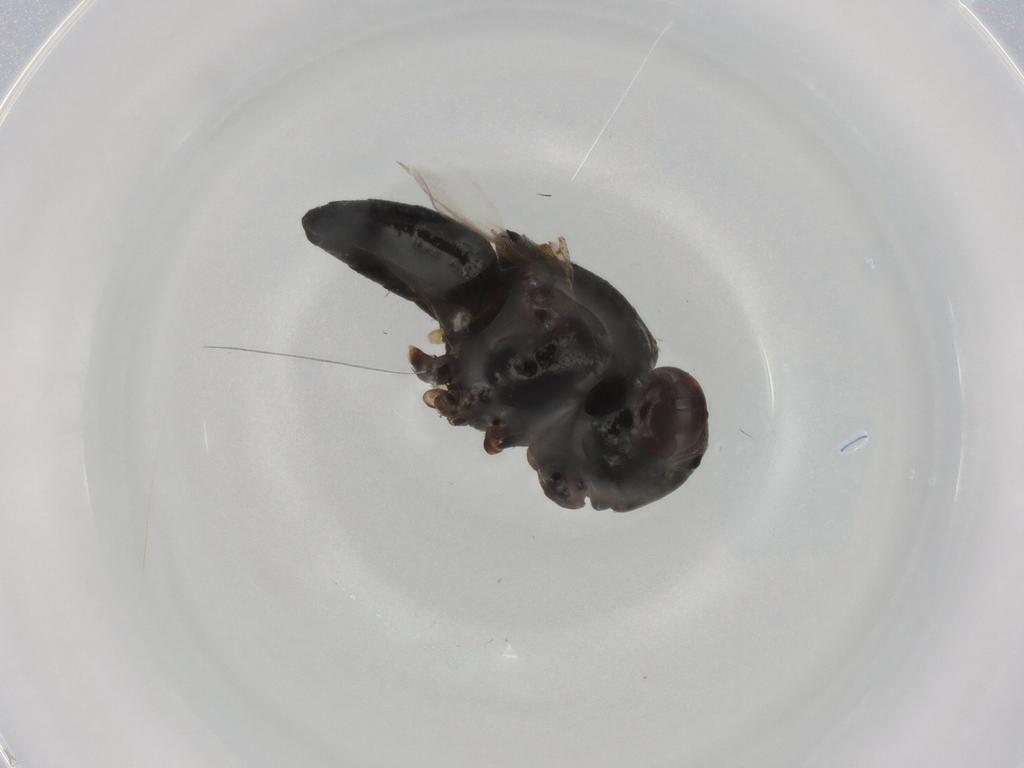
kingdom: Animalia
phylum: Arthropoda
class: Insecta
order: Diptera
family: Ephydridae
